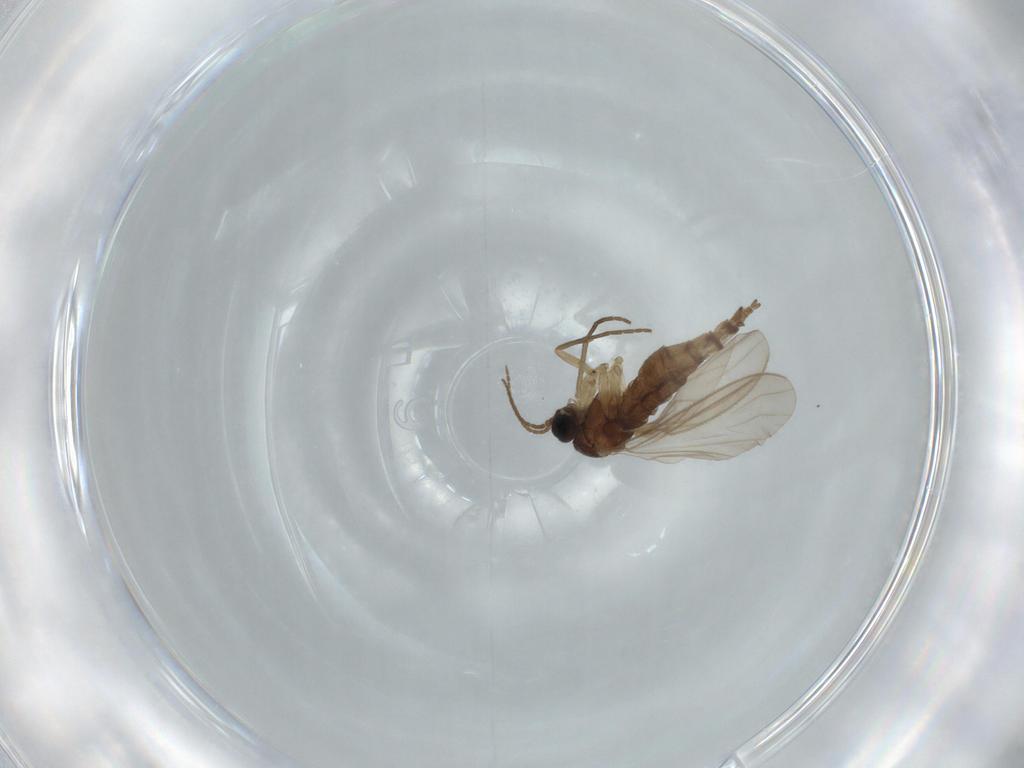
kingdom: Animalia
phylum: Arthropoda
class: Insecta
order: Diptera
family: Sciaridae
